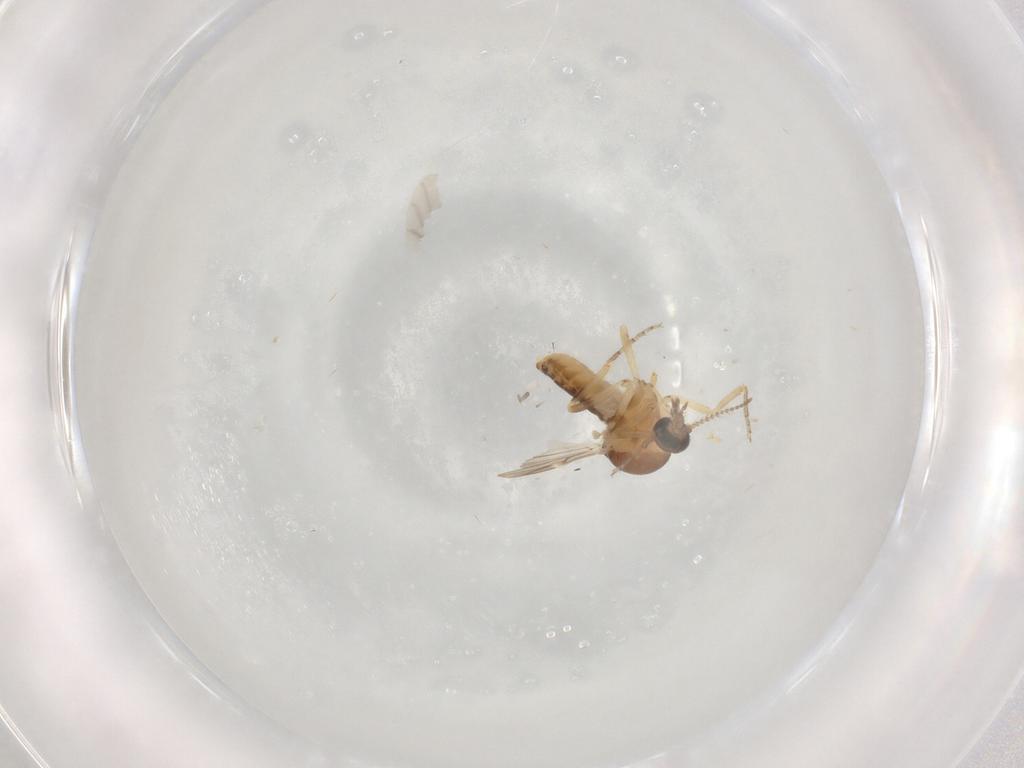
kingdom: Animalia
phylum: Arthropoda
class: Insecta
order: Diptera
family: Ceratopogonidae
